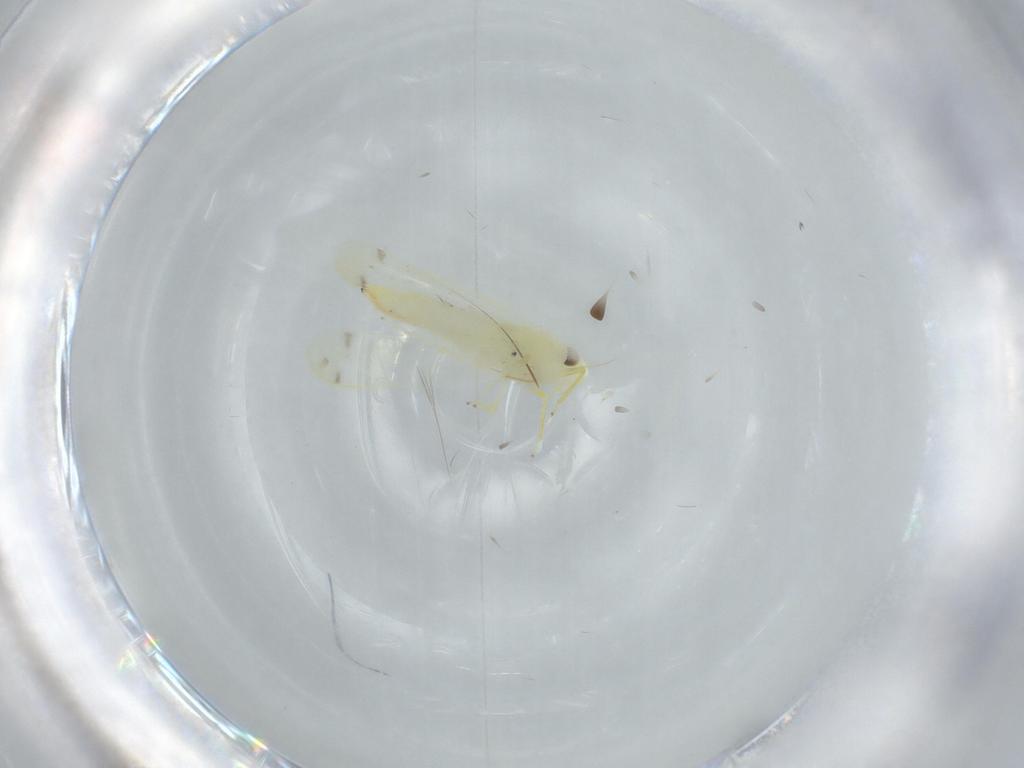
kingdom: Animalia
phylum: Arthropoda
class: Insecta
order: Hemiptera
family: Cicadellidae
